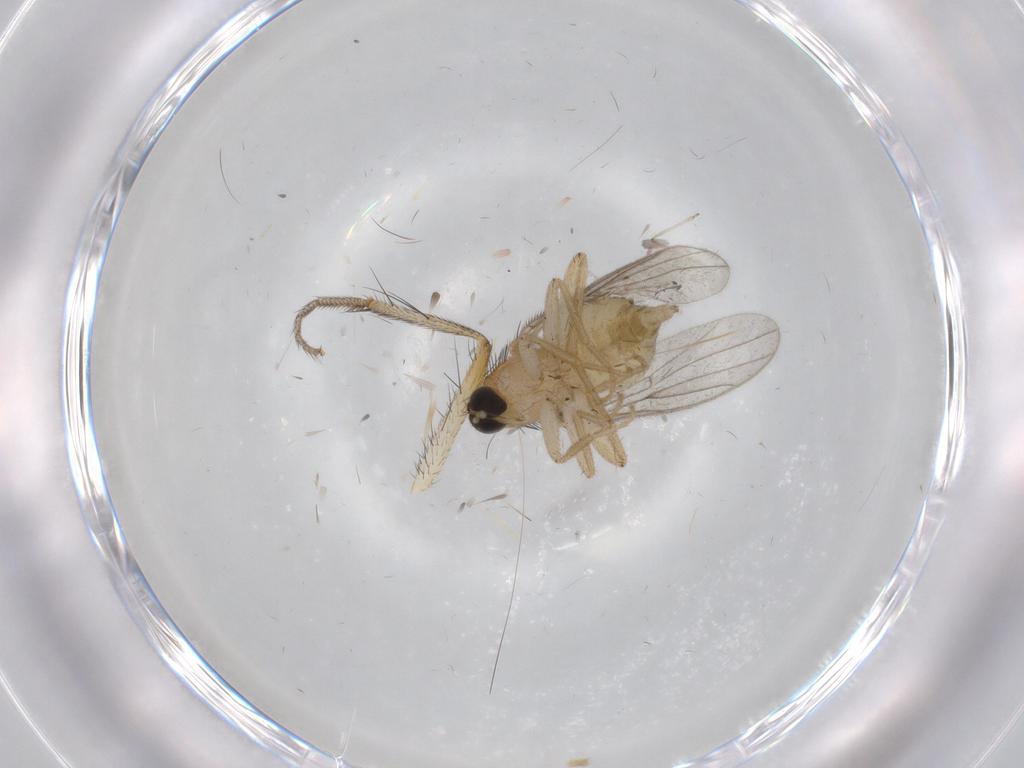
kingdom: Animalia
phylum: Arthropoda
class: Insecta
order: Diptera
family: Hybotidae
